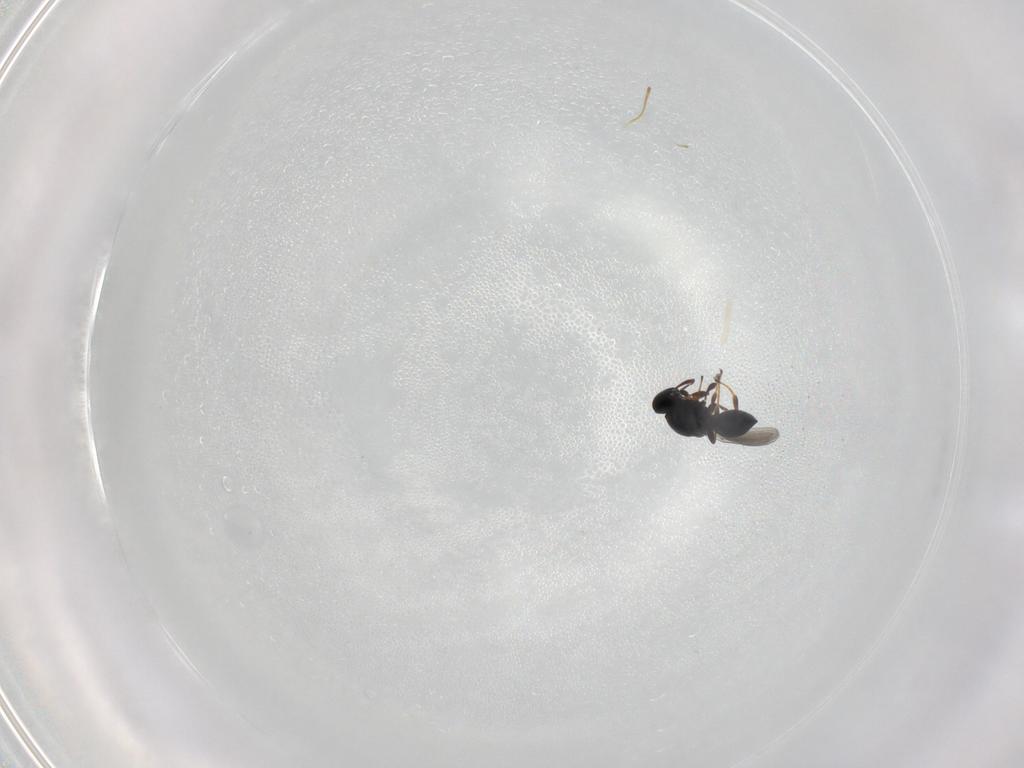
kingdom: Animalia
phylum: Arthropoda
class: Insecta
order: Hymenoptera
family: Platygastridae
